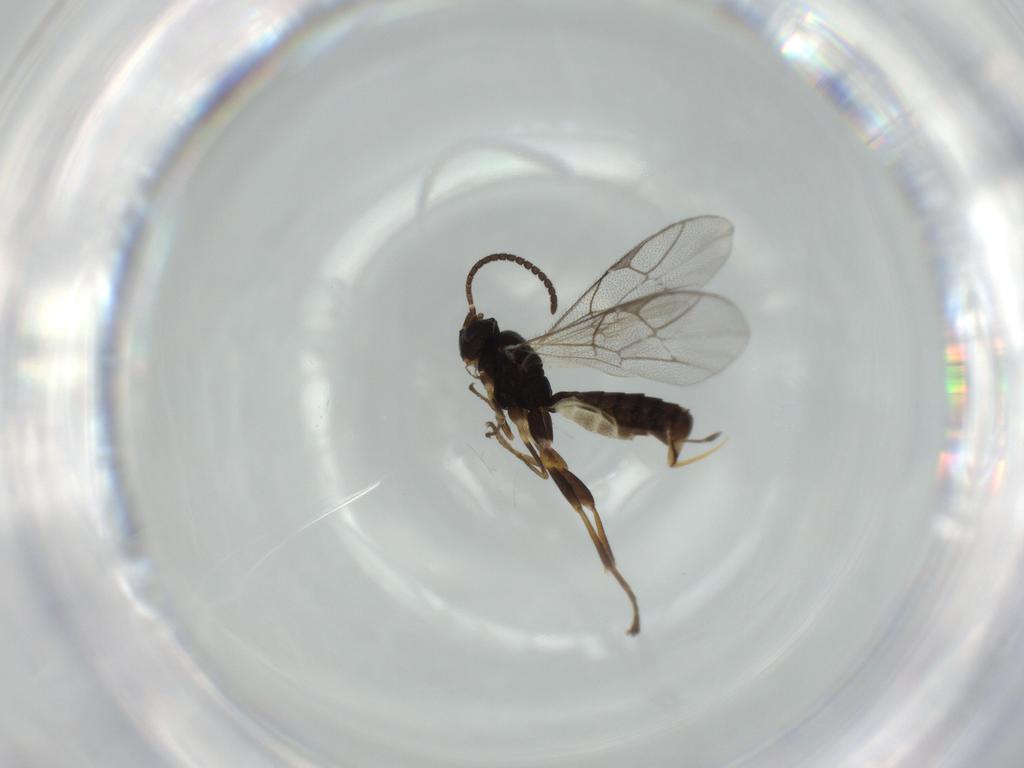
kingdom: Animalia
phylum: Arthropoda
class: Insecta
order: Hymenoptera
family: Ichneumonidae
